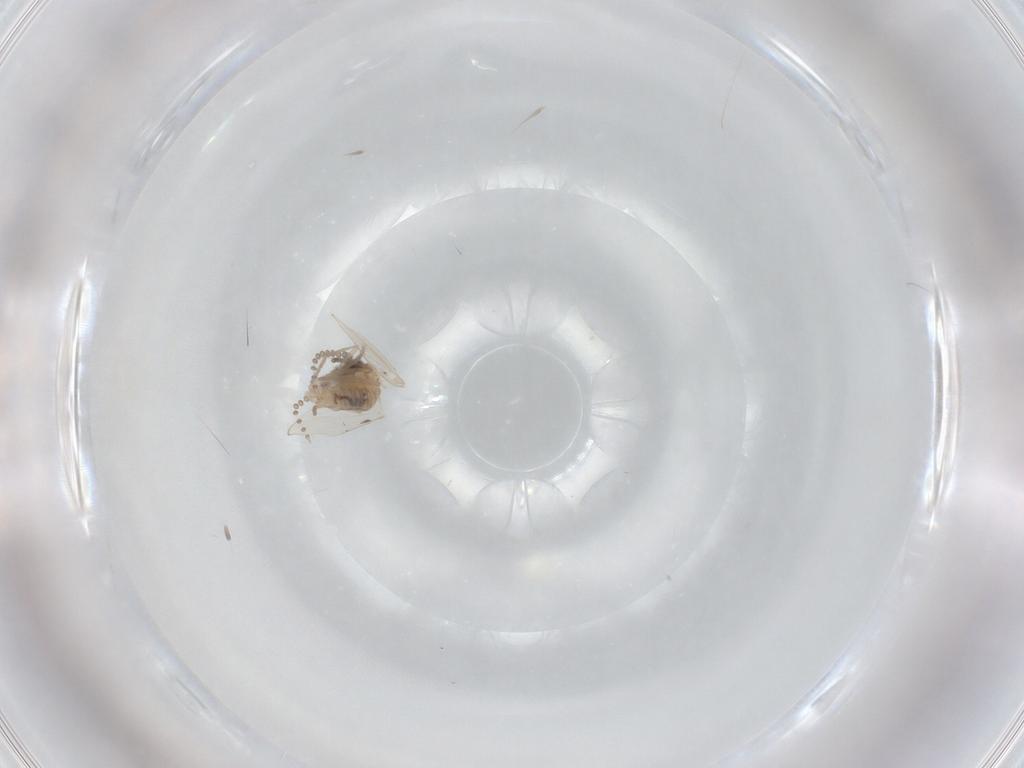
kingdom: Animalia
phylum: Arthropoda
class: Insecta
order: Diptera
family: Psychodidae
